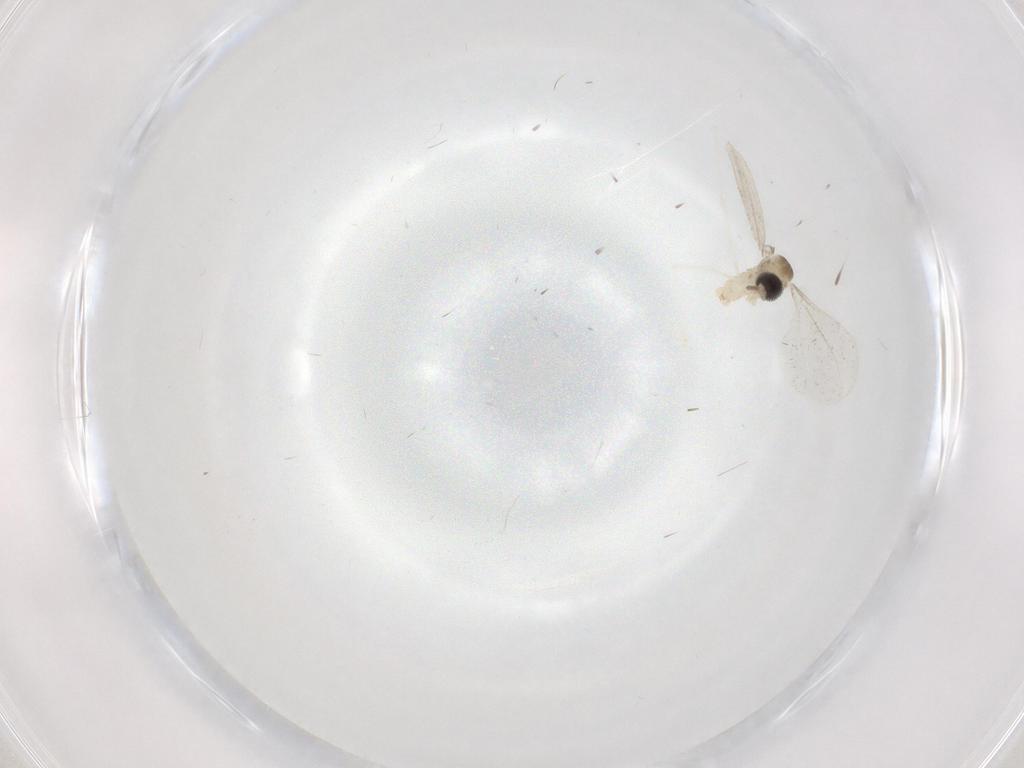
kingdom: Animalia
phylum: Arthropoda
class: Insecta
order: Diptera
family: Cecidomyiidae
